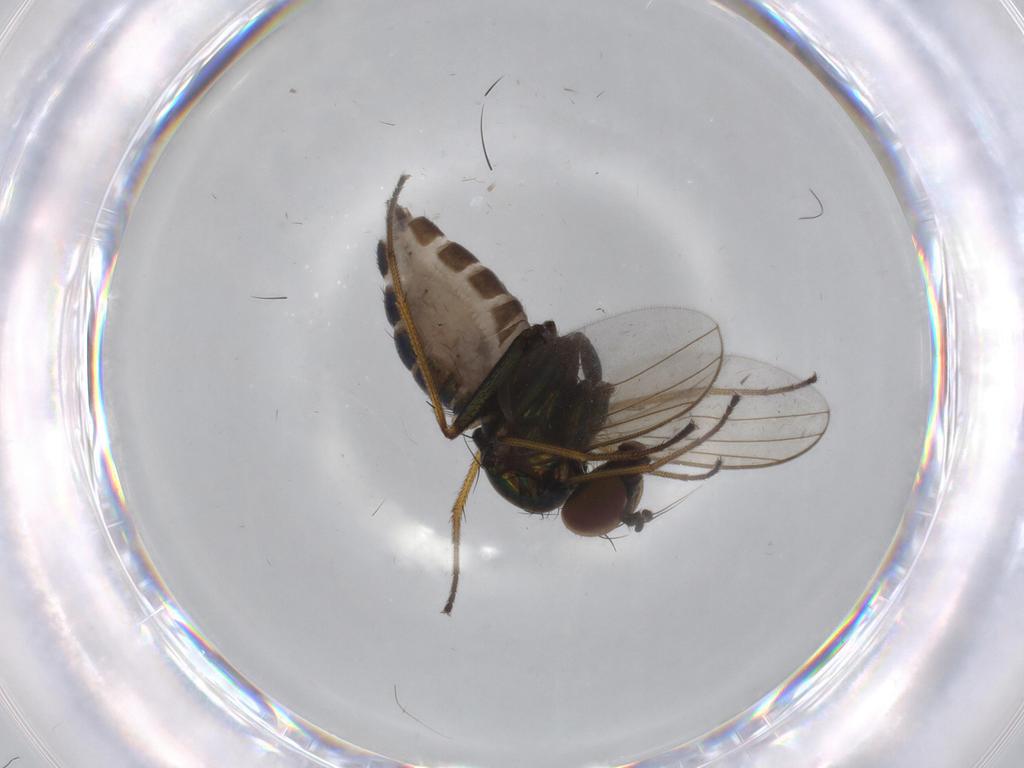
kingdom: Animalia
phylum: Arthropoda
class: Insecta
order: Diptera
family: Dolichopodidae
